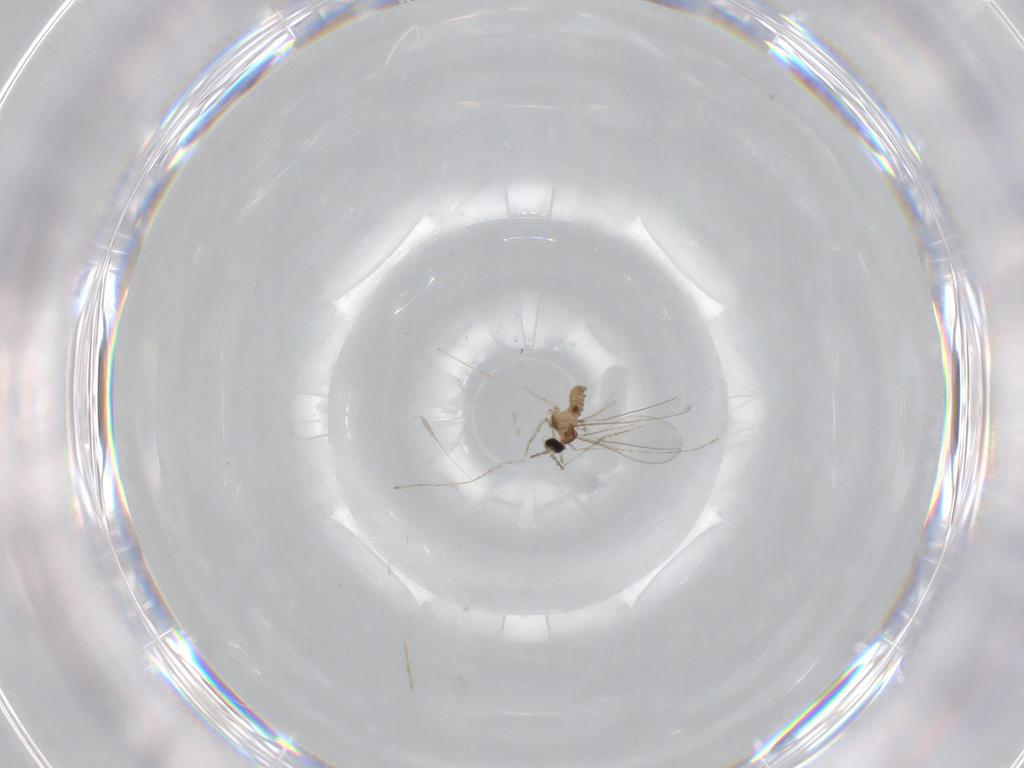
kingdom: Animalia
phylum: Arthropoda
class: Insecta
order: Diptera
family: Cecidomyiidae
